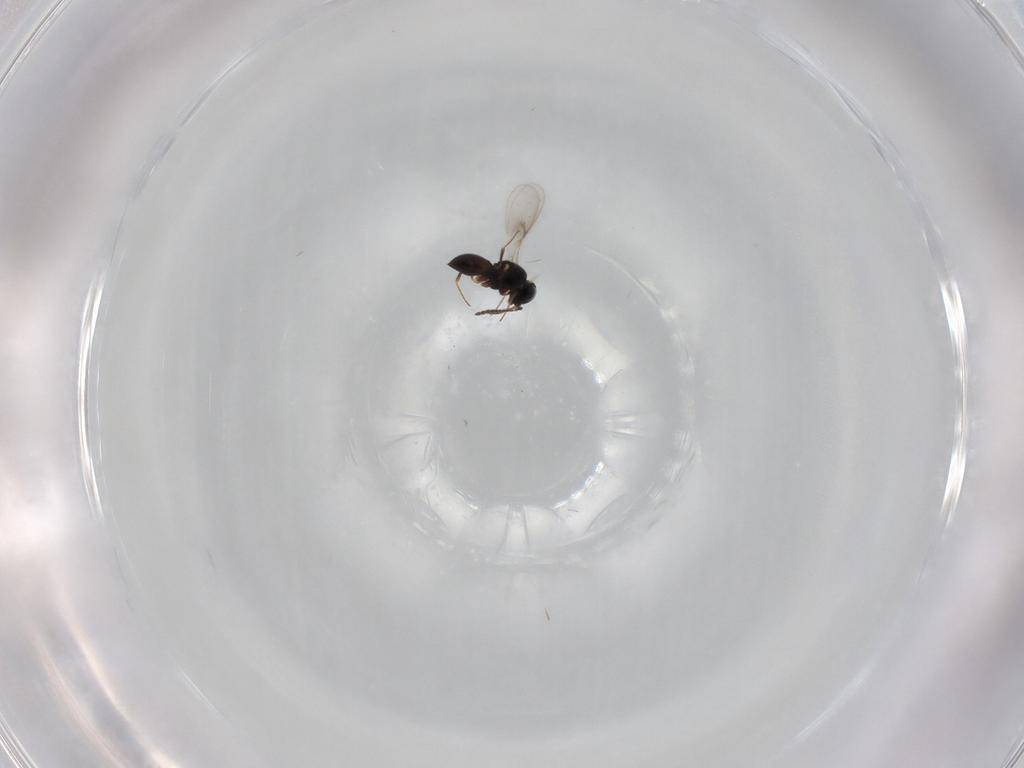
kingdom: Animalia
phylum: Arthropoda
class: Insecta
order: Hymenoptera
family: Scelionidae
